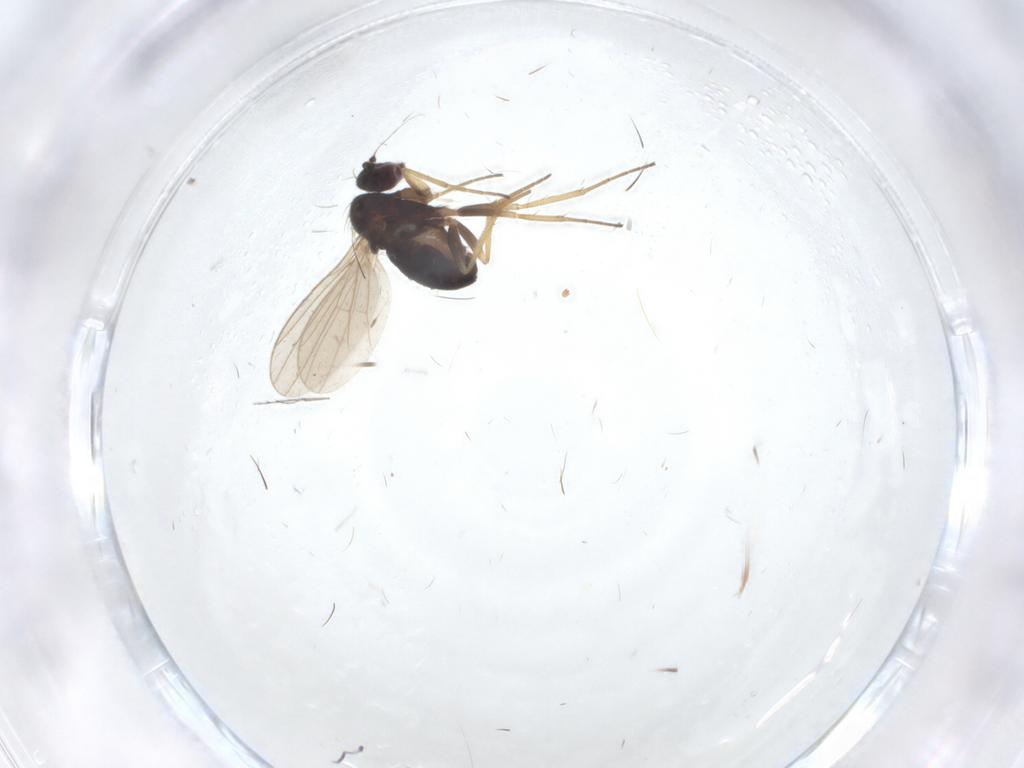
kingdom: Animalia
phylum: Arthropoda
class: Insecta
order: Diptera
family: Dolichopodidae
